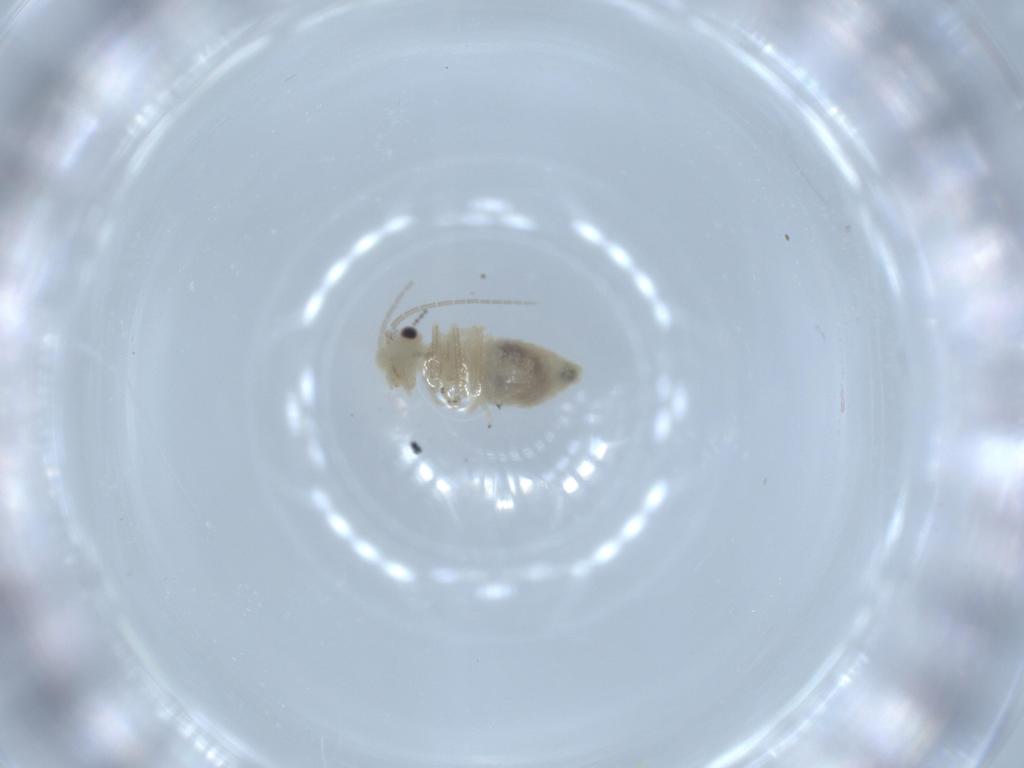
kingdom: Animalia
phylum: Arthropoda
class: Insecta
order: Psocodea
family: Caeciliusidae
